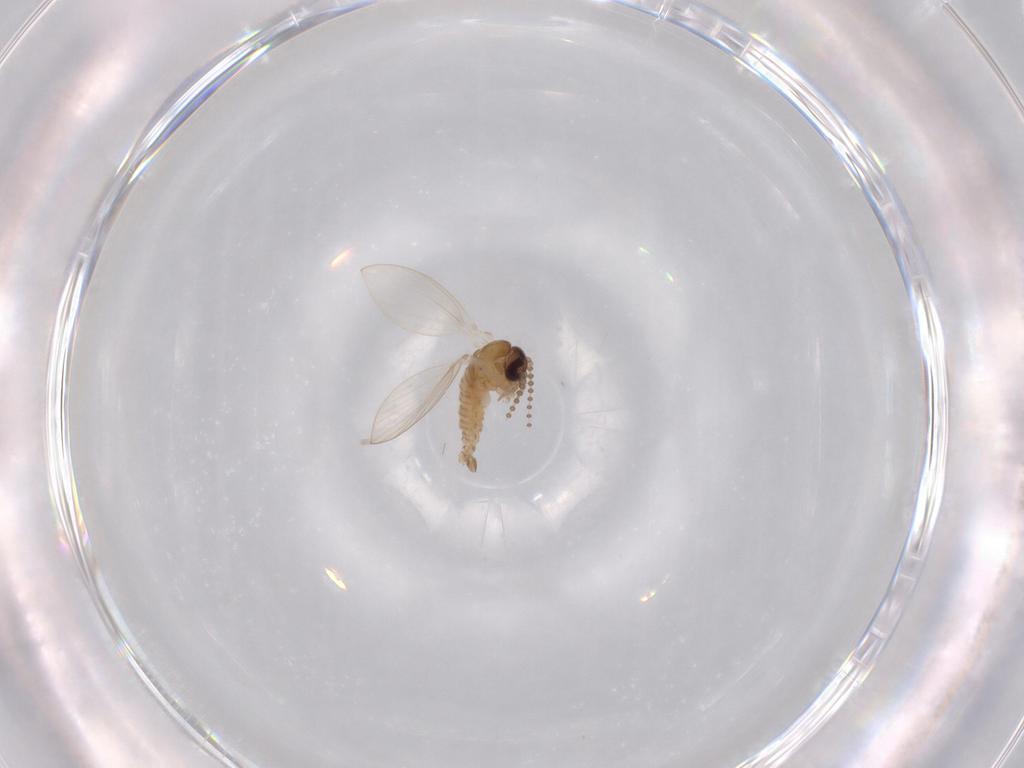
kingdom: Animalia
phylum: Arthropoda
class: Insecta
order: Diptera
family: Psychodidae
